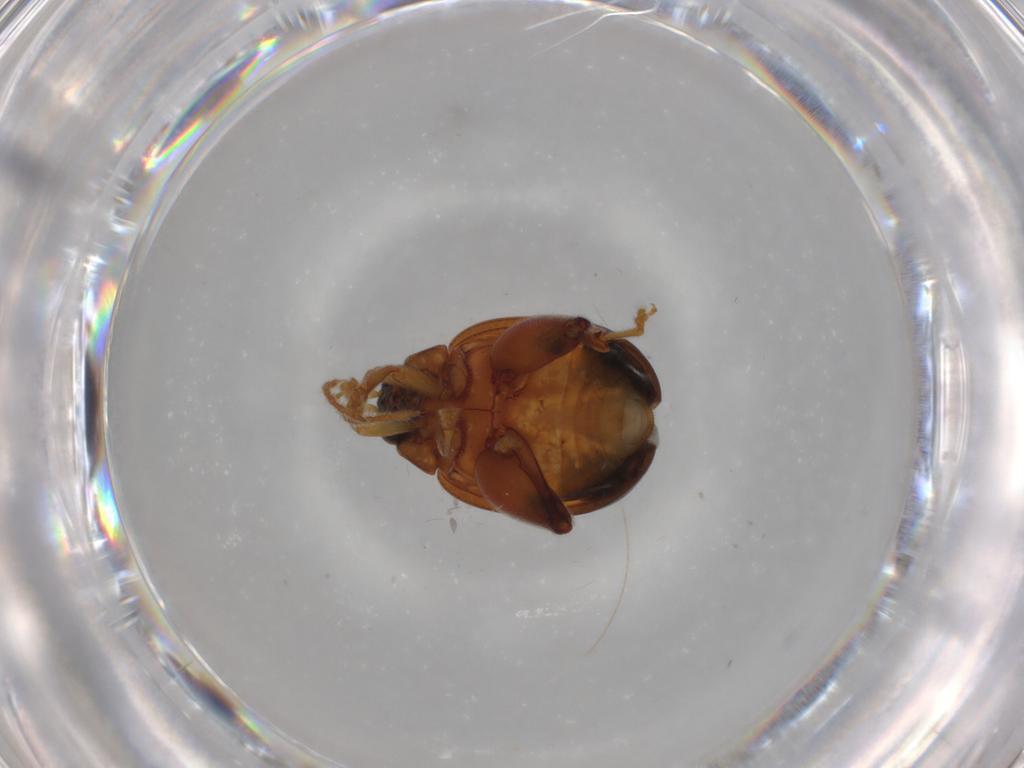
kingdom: Animalia
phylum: Arthropoda
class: Insecta
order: Coleoptera
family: Chrysomelidae
